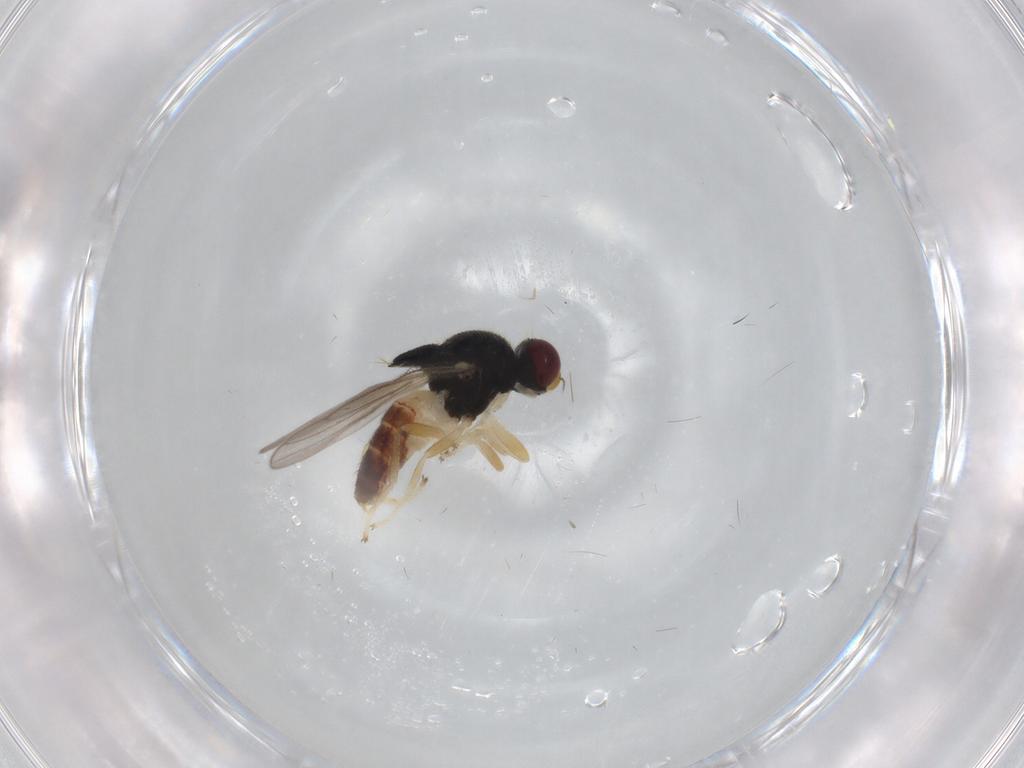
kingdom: Animalia
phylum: Arthropoda
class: Insecta
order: Diptera
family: Chloropidae
